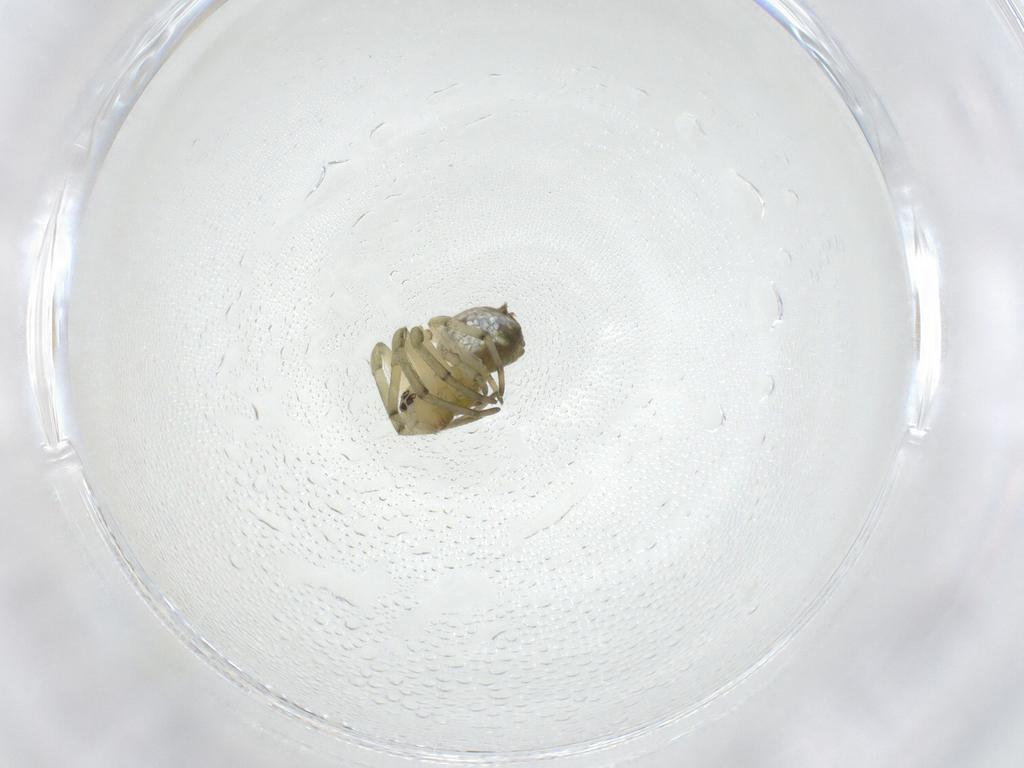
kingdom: Animalia
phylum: Arthropoda
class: Arachnida
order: Araneae
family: Tetragnathidae
